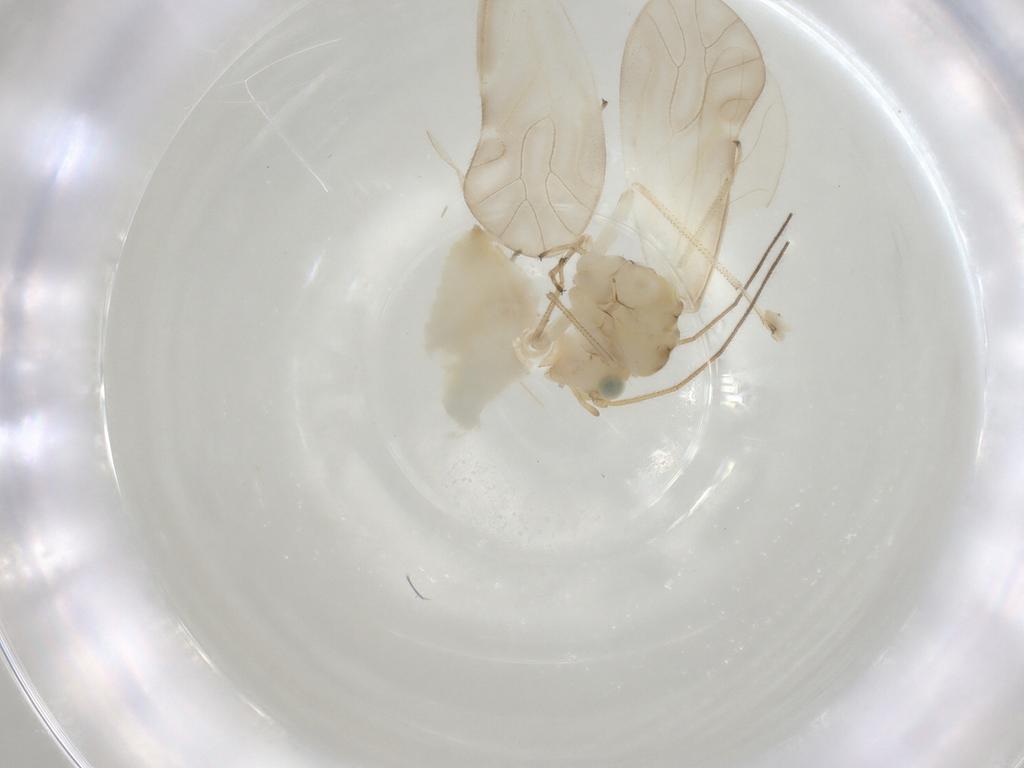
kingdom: Animalia
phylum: Arthropoda
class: Insecta
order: Psocodea
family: Caeciliusidae
